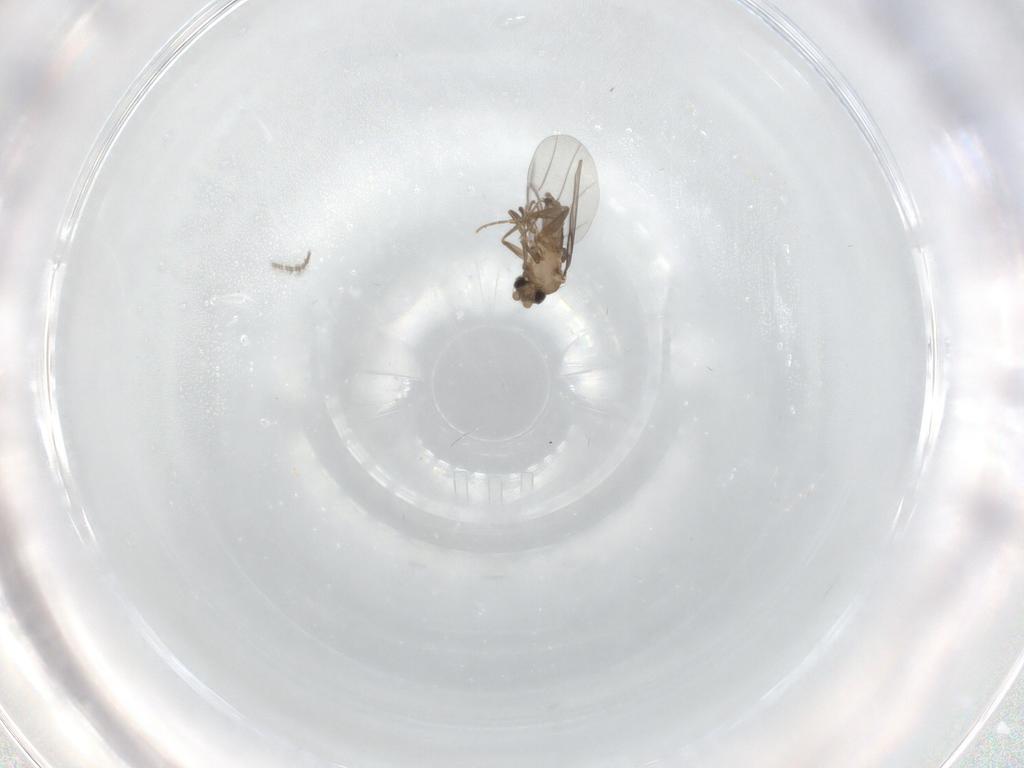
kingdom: Animalia
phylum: Arthropoda
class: Insecta
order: Diptera
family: Ceratopogonidae
